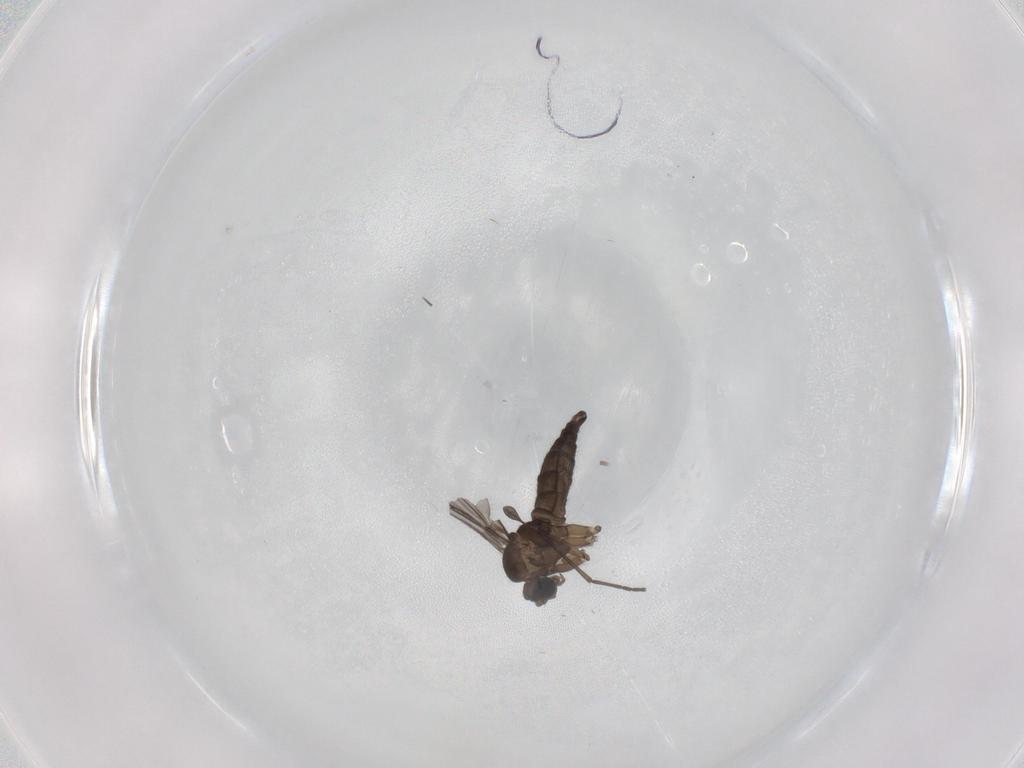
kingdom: Animalia
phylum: Arthropoda
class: Insecta
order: Diptera
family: Sciaridae
